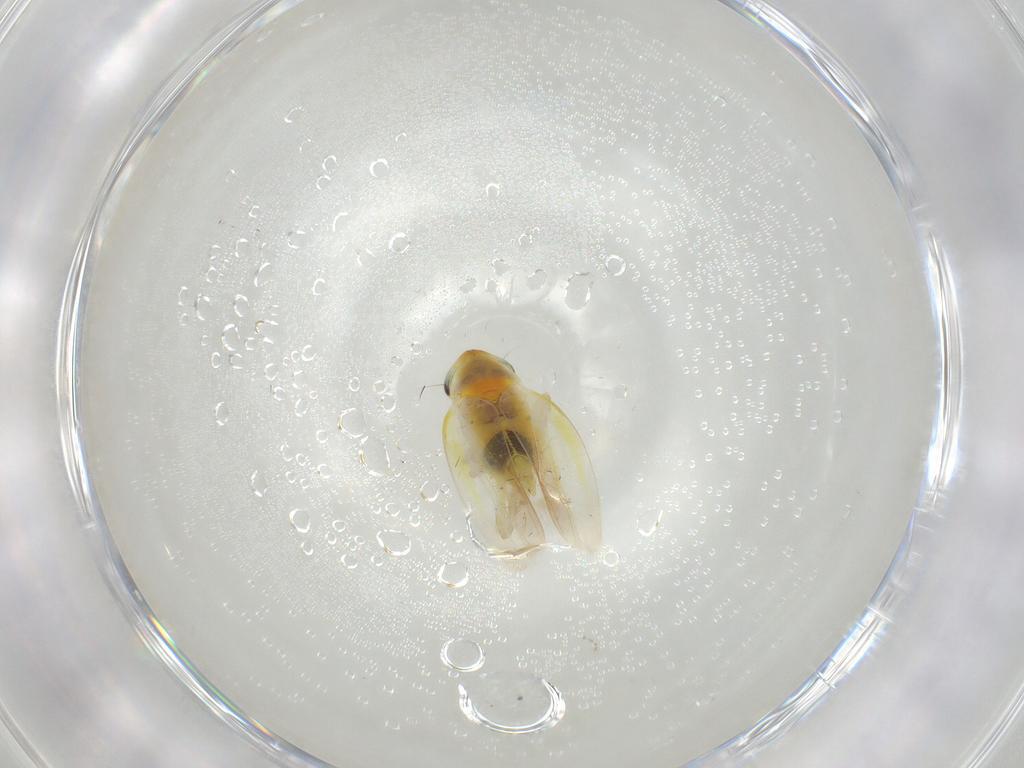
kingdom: Animalia
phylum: Arthropoda
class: Insecta
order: Hemiptera
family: Cicadellidae
